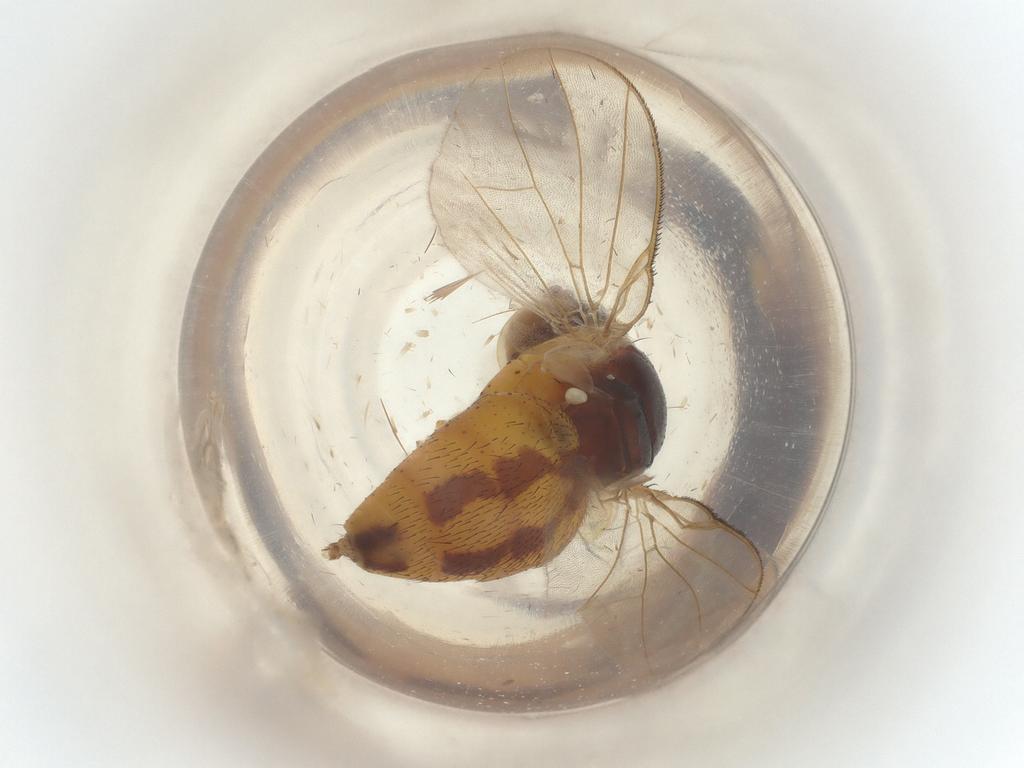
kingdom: Animalia
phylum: Arthropoda
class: Insecta
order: Diptera
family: Muscidae
